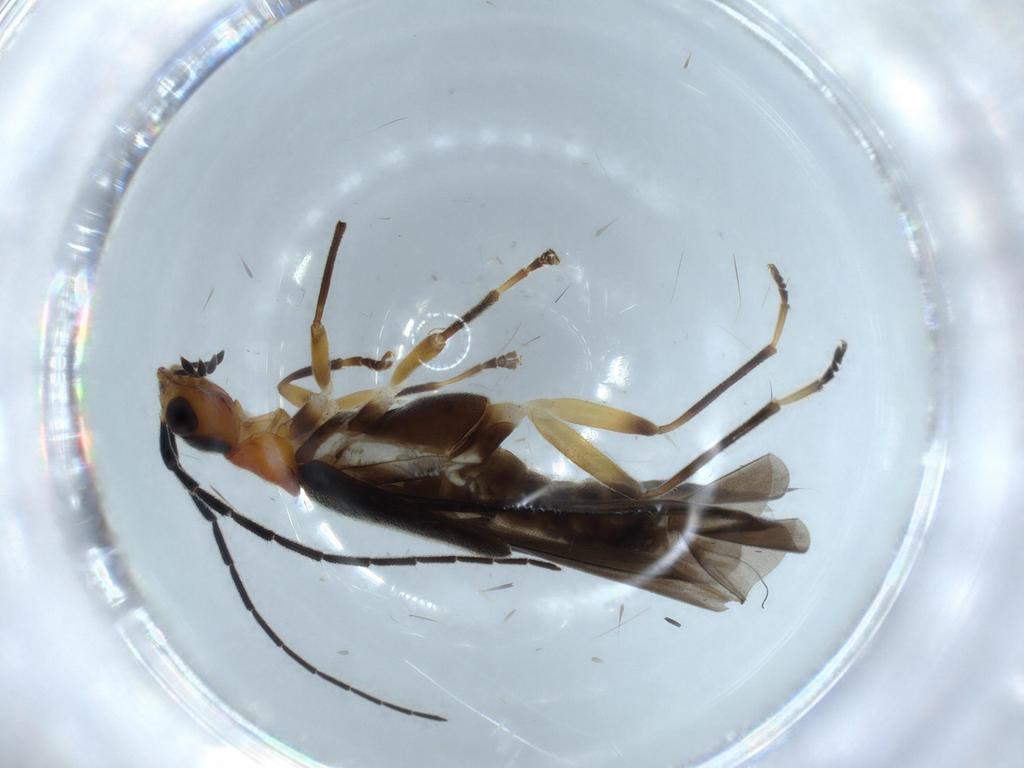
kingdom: Animalia
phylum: Arthropoda
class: Insecta
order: Coleoptera
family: Cantharidae
